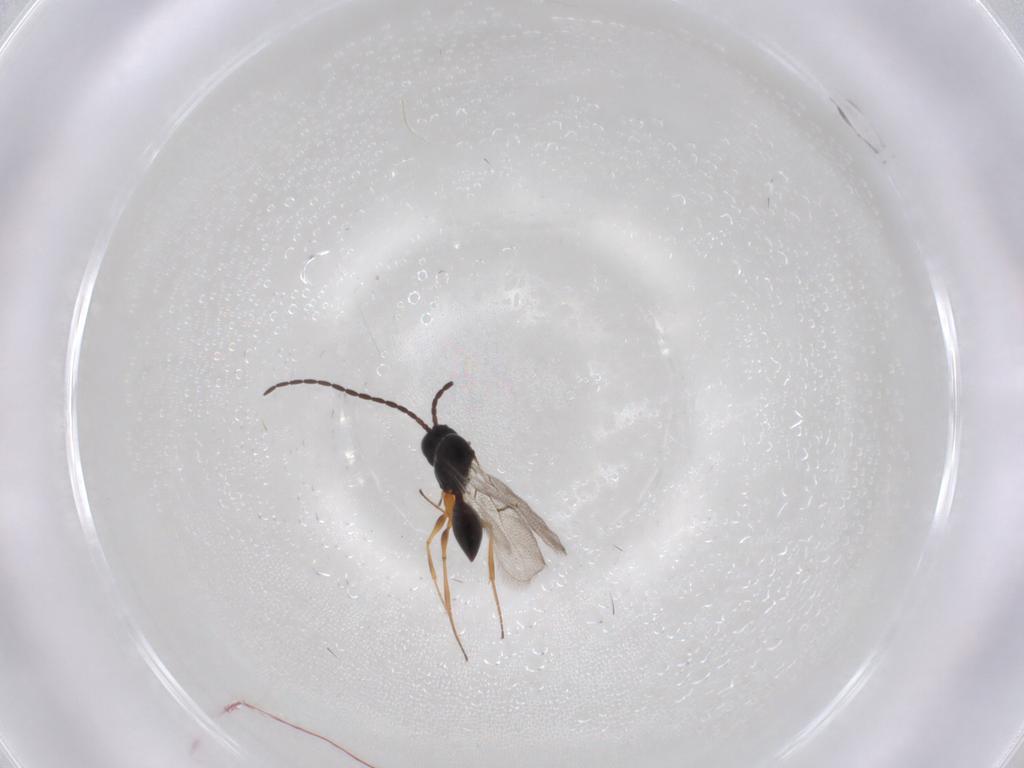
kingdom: Animalia
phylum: Arthropoda
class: Insecta
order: Hymenoptera
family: Figitidae
